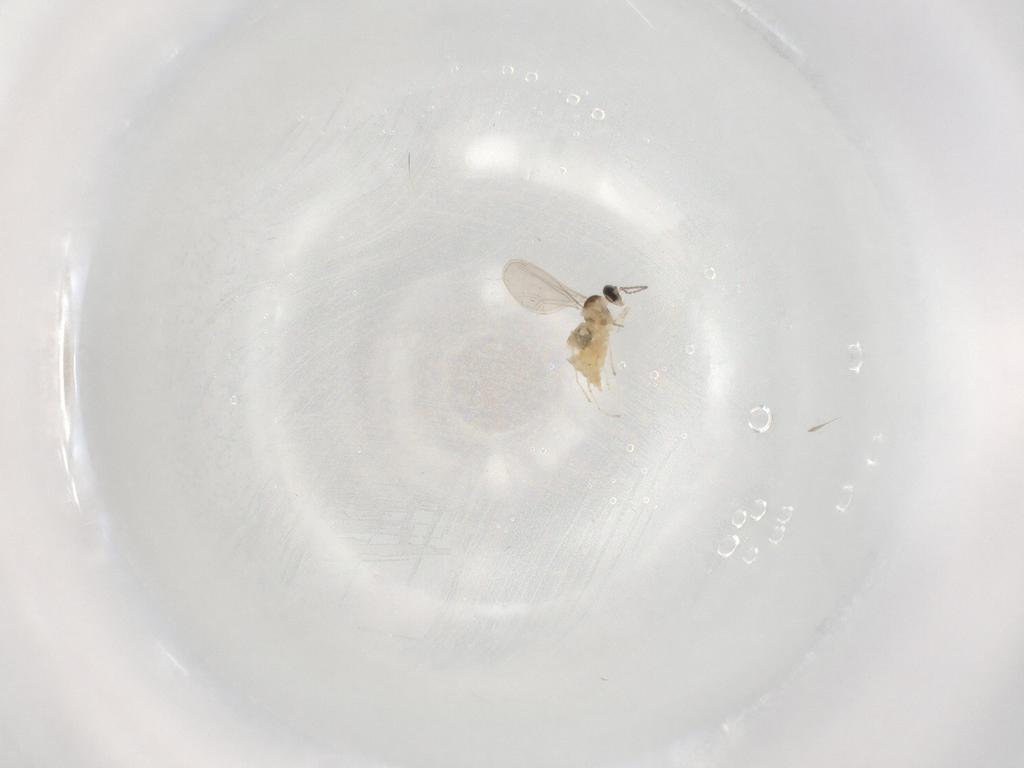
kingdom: Animalia
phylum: Arthropoda
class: Insecta
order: Diptera
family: Cecidomyiidae
